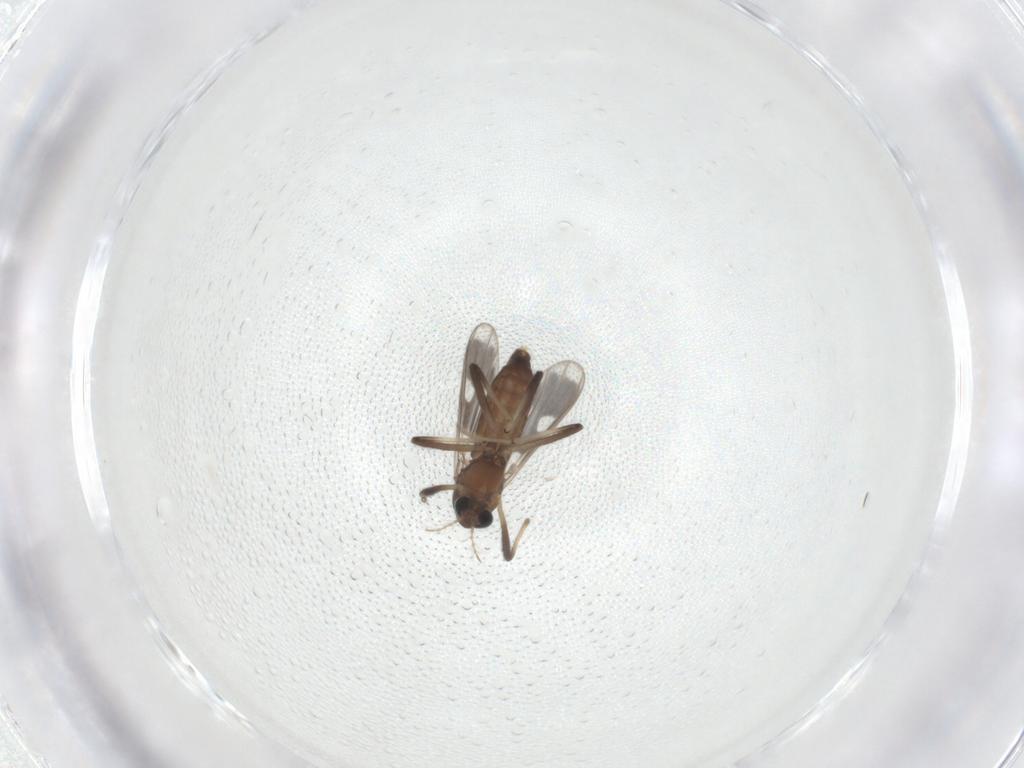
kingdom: Animalia
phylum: Arthropoda
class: Insecta
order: Diptera
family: Chironomidae
